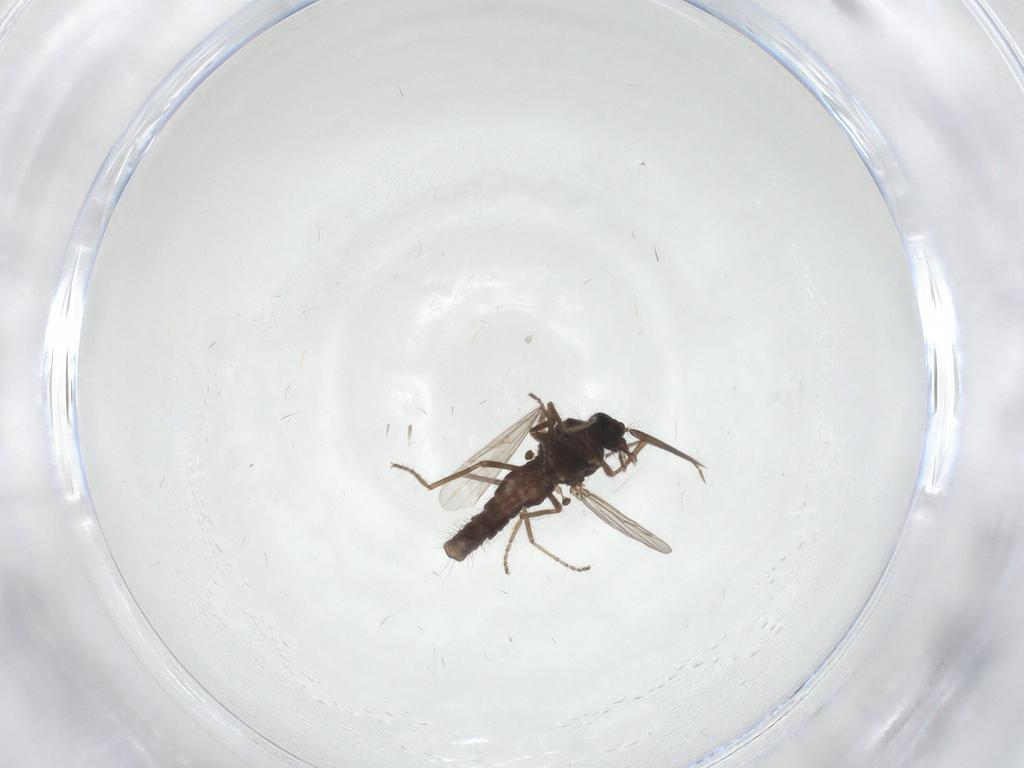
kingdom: Animalia
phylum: Arthropoda
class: Insecta
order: Diptera
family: Ceratopogonidae
